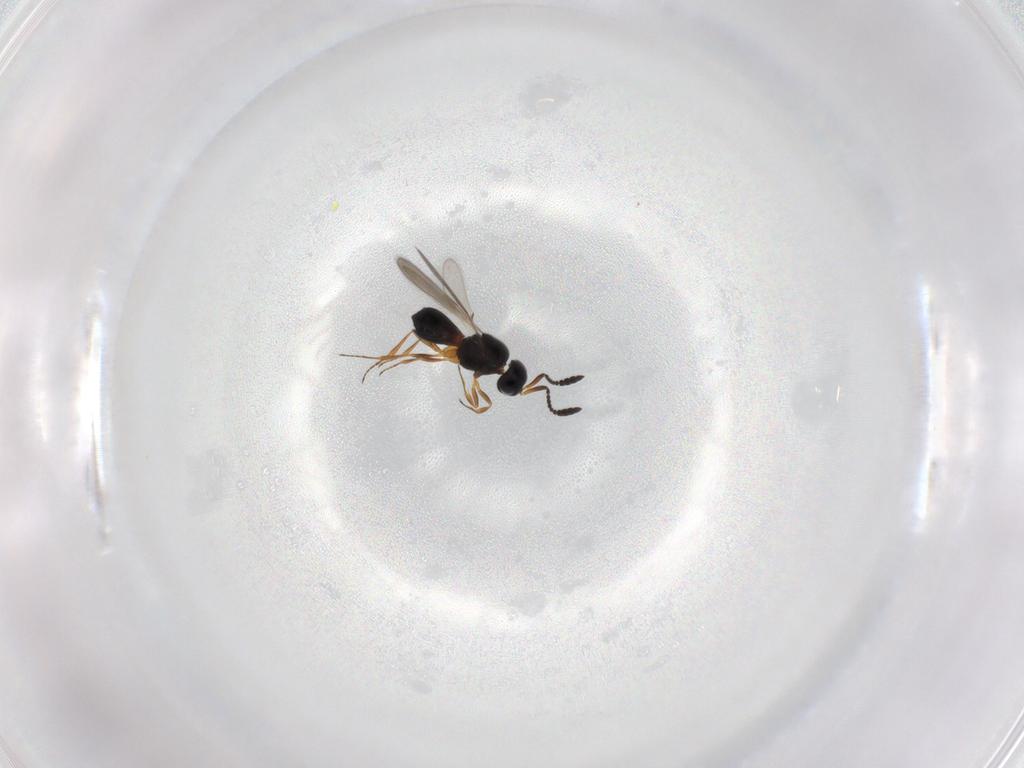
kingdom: Animalia
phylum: Arthropoda
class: Insecta
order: Hymenoptera
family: Scelionidae
